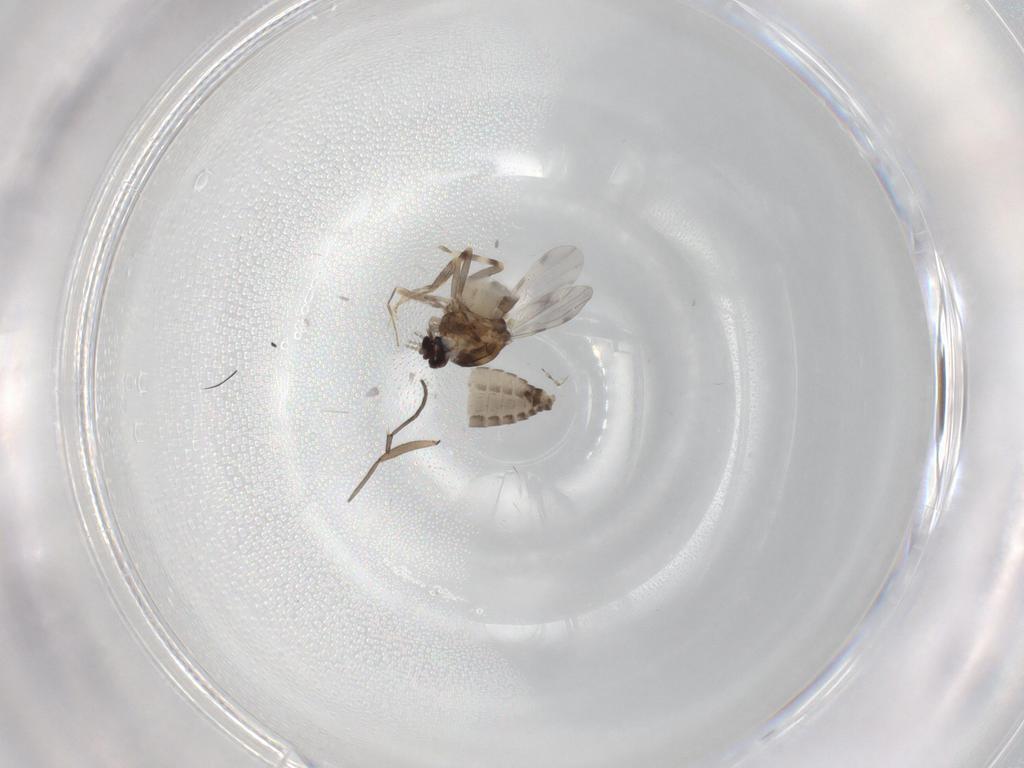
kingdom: Animalia
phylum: Arthropoda
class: Insecta
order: Diptera
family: Ceratopogonidae
